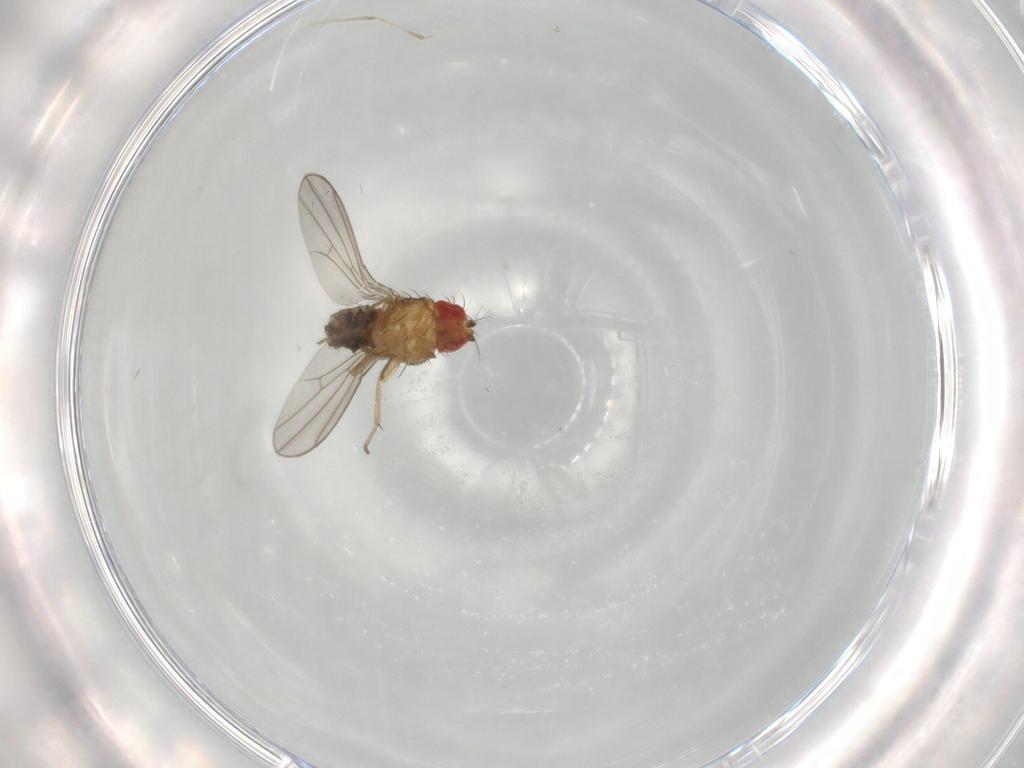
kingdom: Animalia
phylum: Arthropoda
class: Insecta
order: Diptera
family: Drosophilidae
